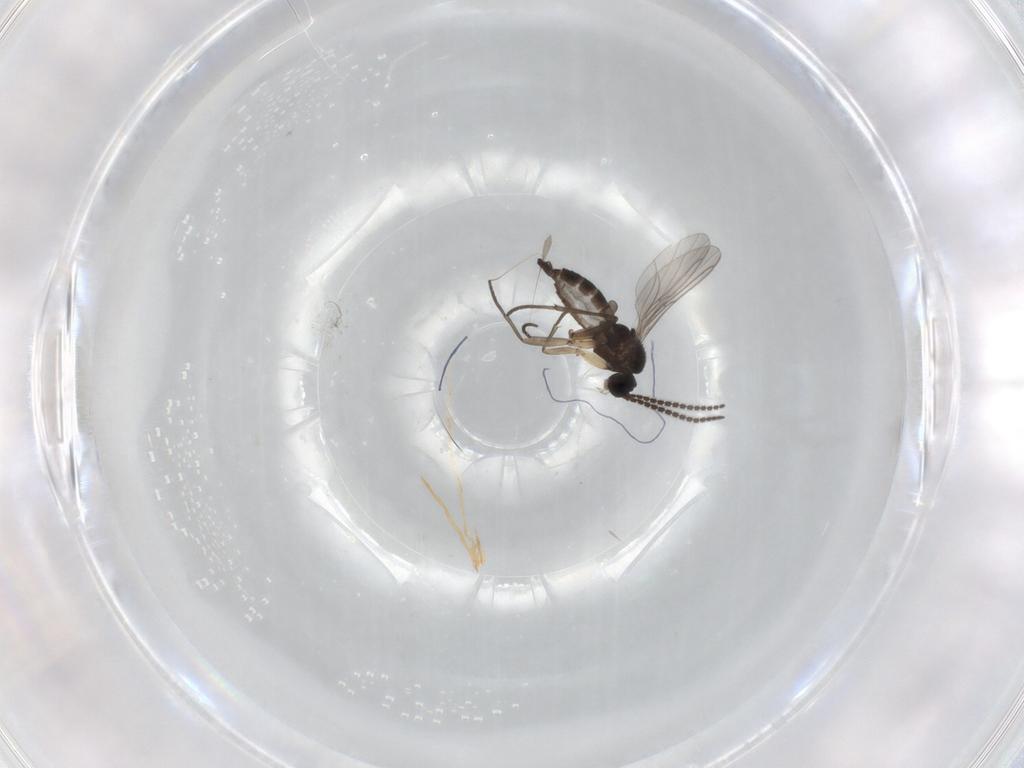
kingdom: Animalia
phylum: Arthropoda
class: Insecta
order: Diptera
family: Sciaridae
